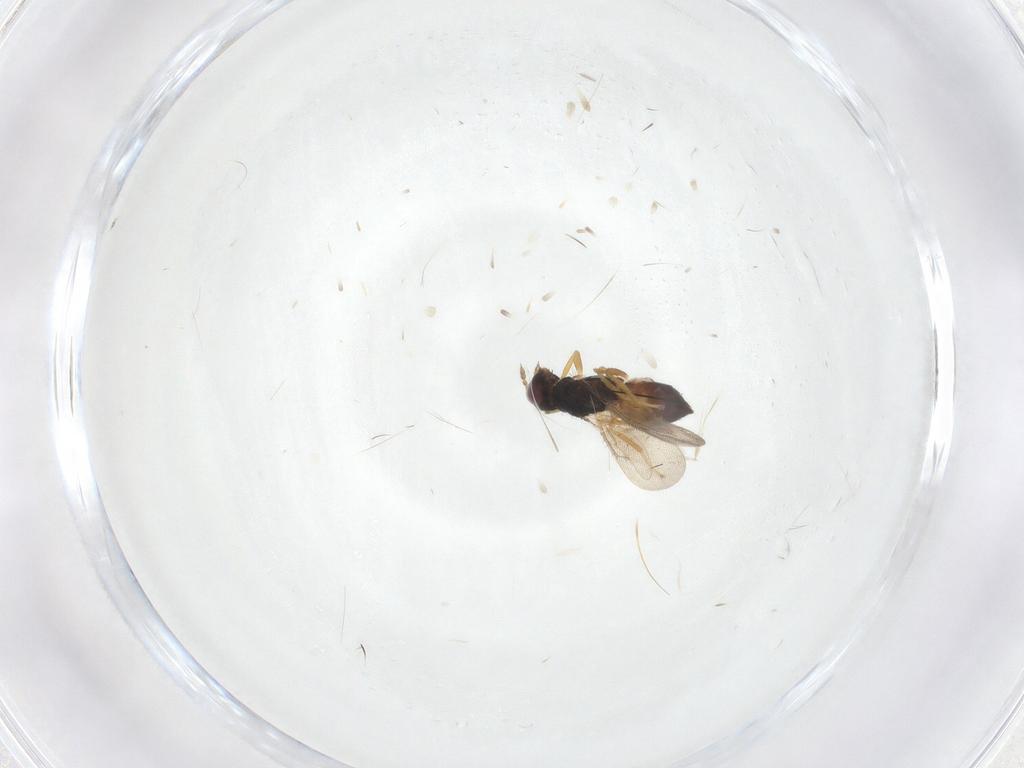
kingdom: Animalia
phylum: Arthropoda
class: Insecta
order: Hymenoptera
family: Eulophidae
